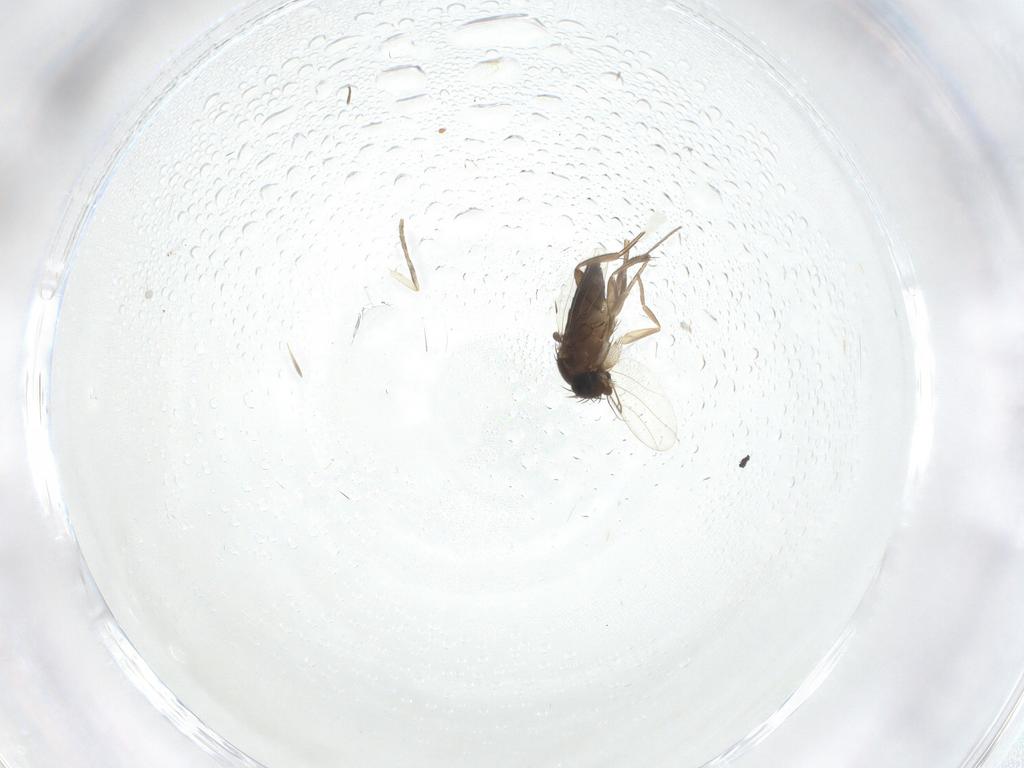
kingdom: Animalia
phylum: Arthropoda
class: Insecta
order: Diptera
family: Phoridae
